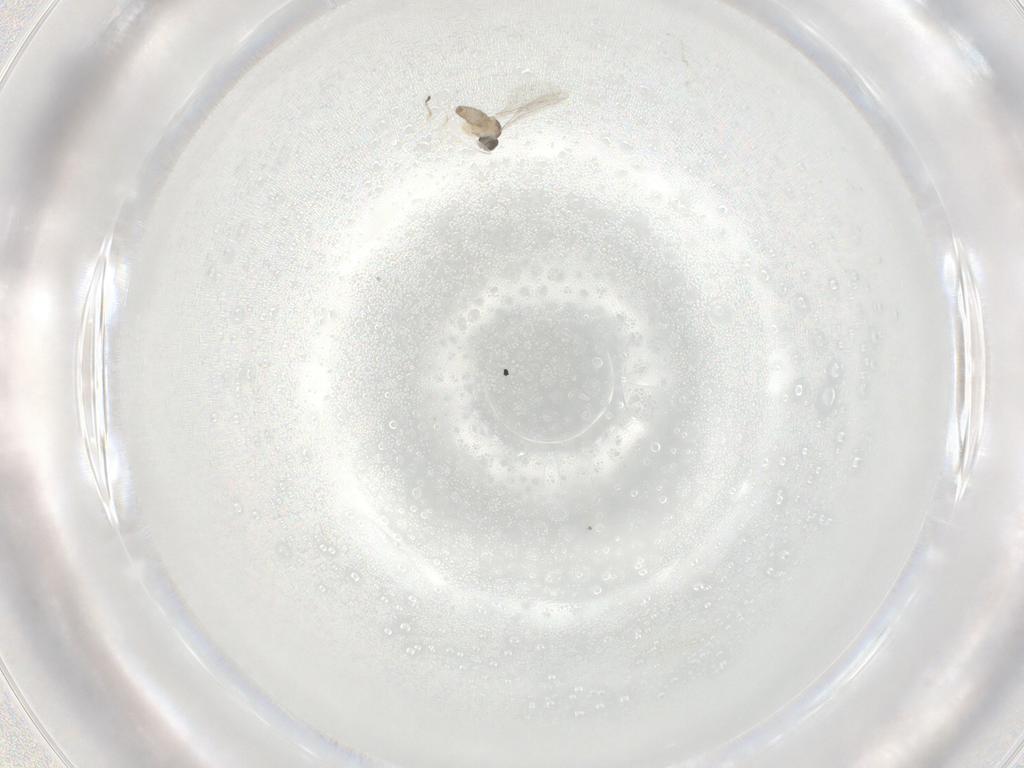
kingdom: Animalia
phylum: Arthropoda
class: Insecta
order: Diptera
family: Cecidomyiidae
